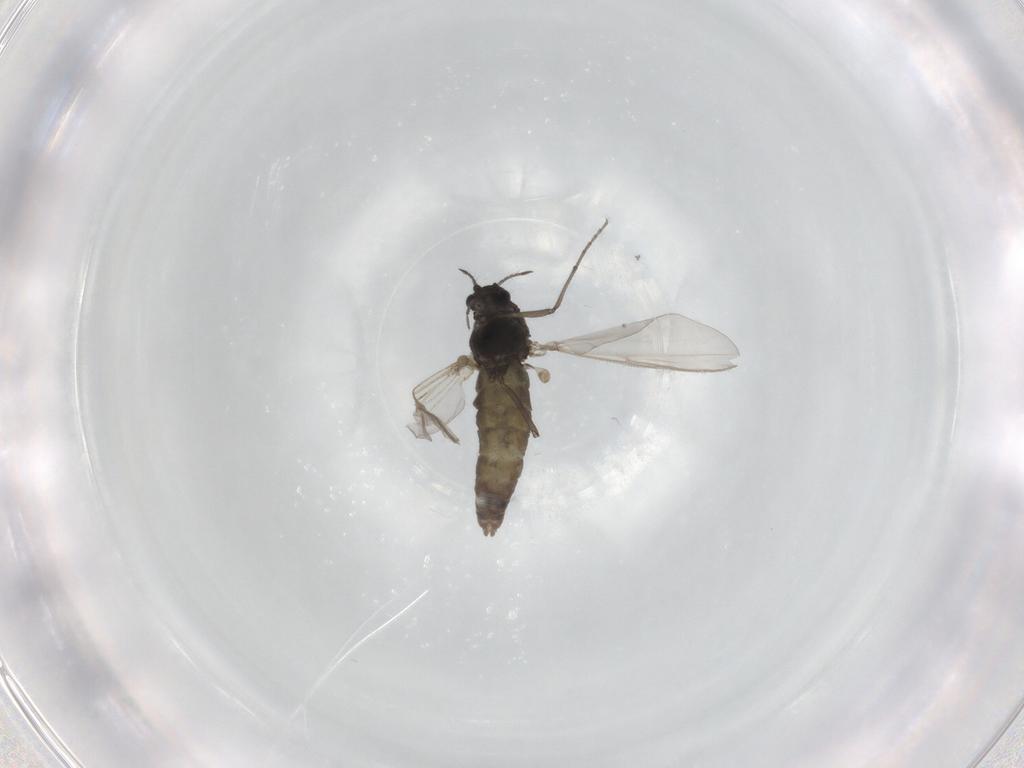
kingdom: Animalia
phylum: Arthropoda
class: Insecta
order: Diptera
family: Chironomidae
